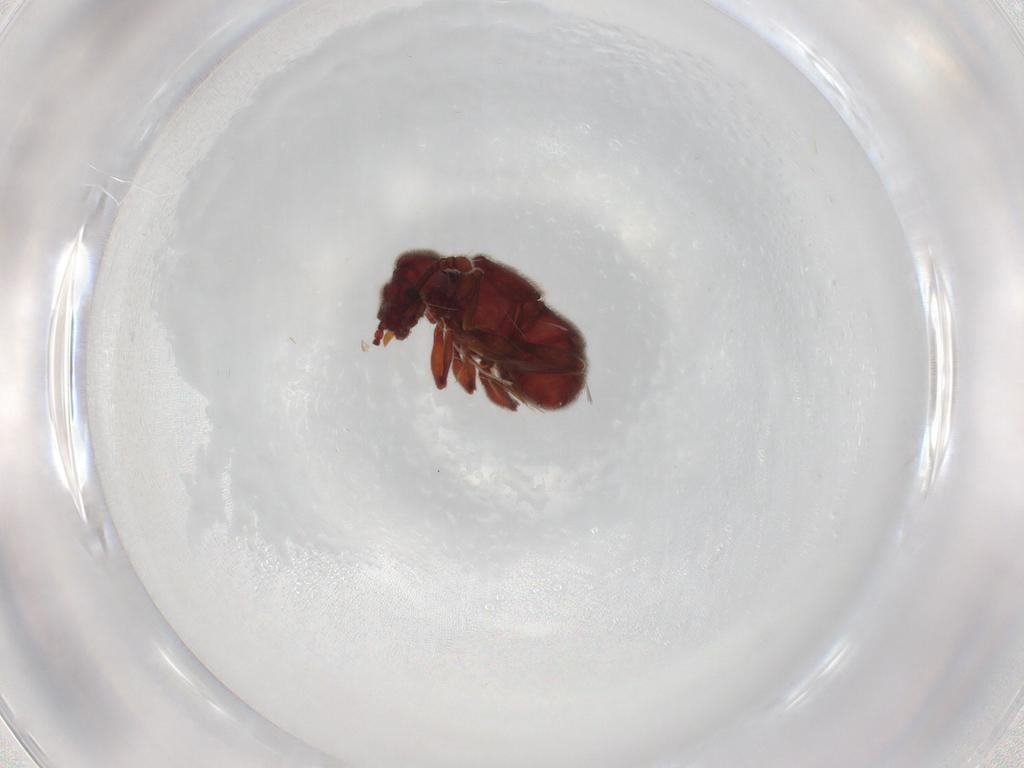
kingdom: Animalia
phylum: Arthropoda
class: Insecta
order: Coleoptera
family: Staphylinidae
